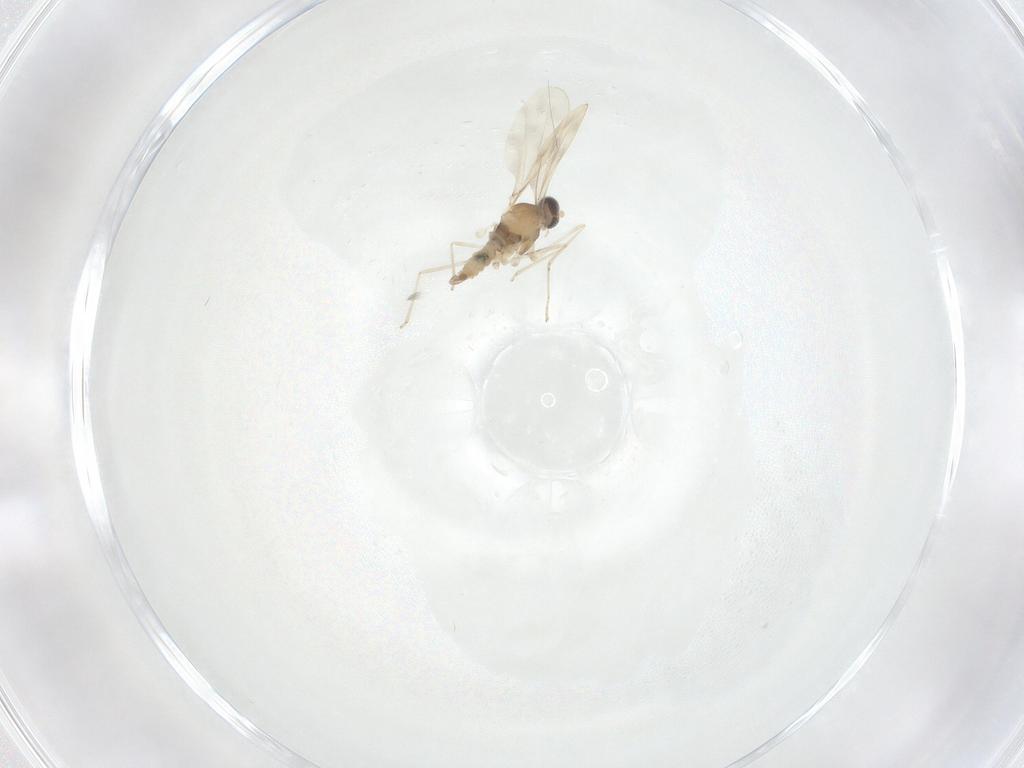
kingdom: Animalia
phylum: Arthropoda
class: Insecta
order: Diptera
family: Cecidomyiidae
